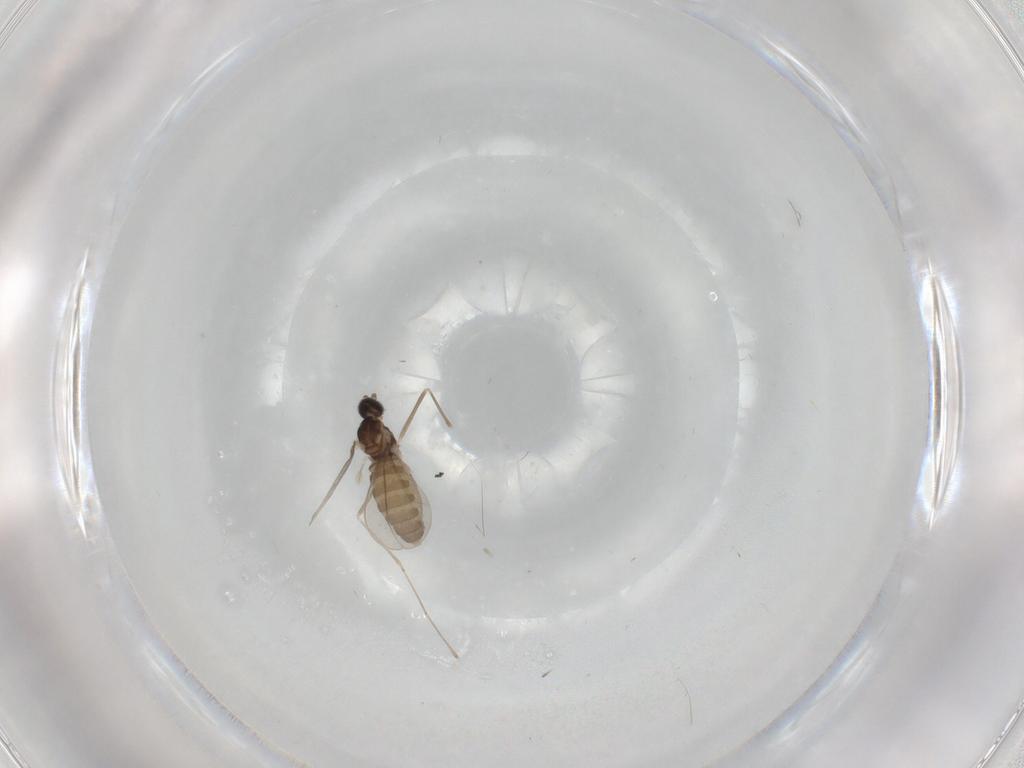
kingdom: Animalia
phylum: Arthropoda
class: Insecta
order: Diptera
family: Cecidomyiidae
